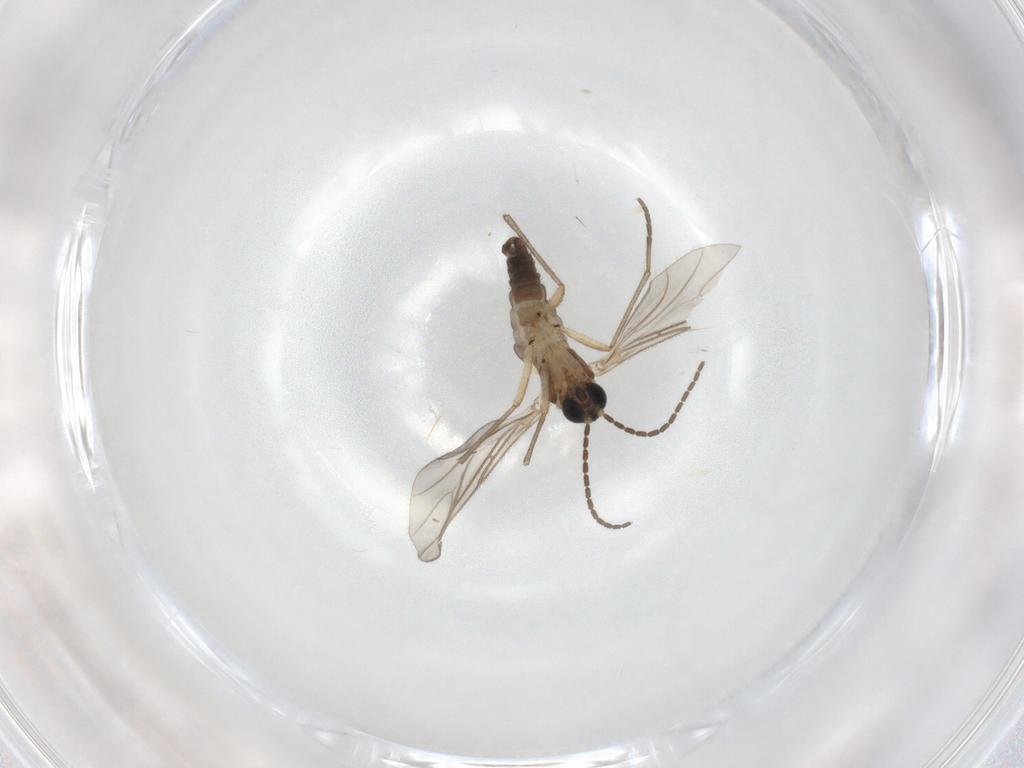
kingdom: Animalia
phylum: Arthropoda
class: Insecta
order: Diptera
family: Sciaridae
